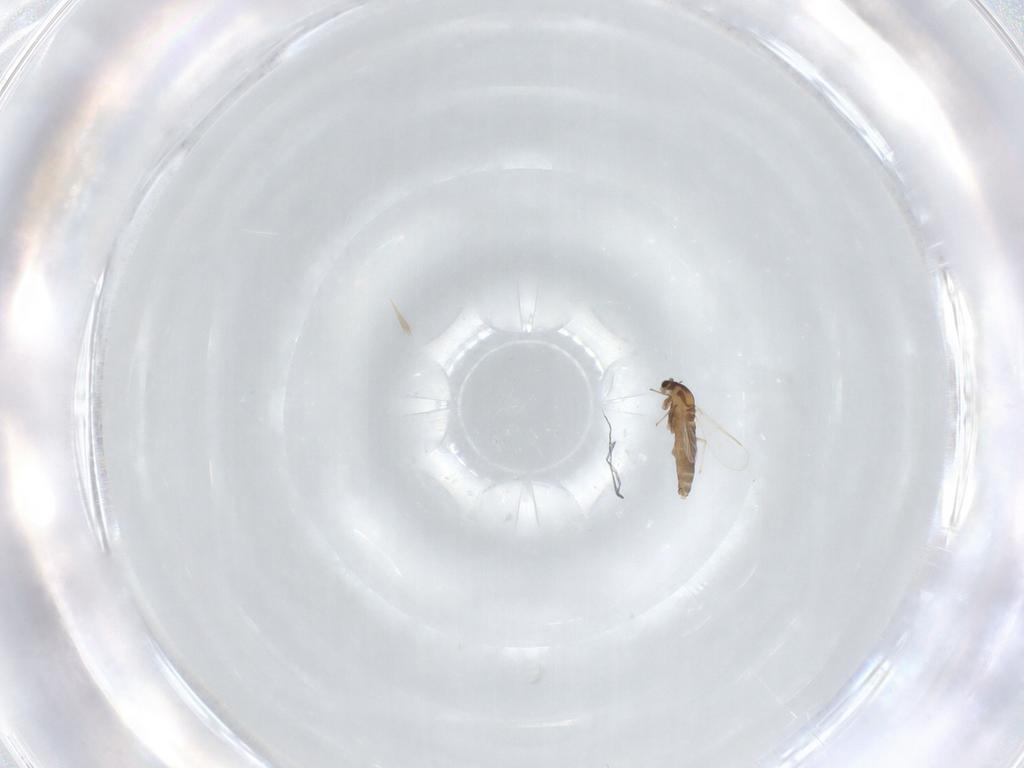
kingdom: Animalia
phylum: Arthropoda
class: Insecta
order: Diptera
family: Chironomidae
